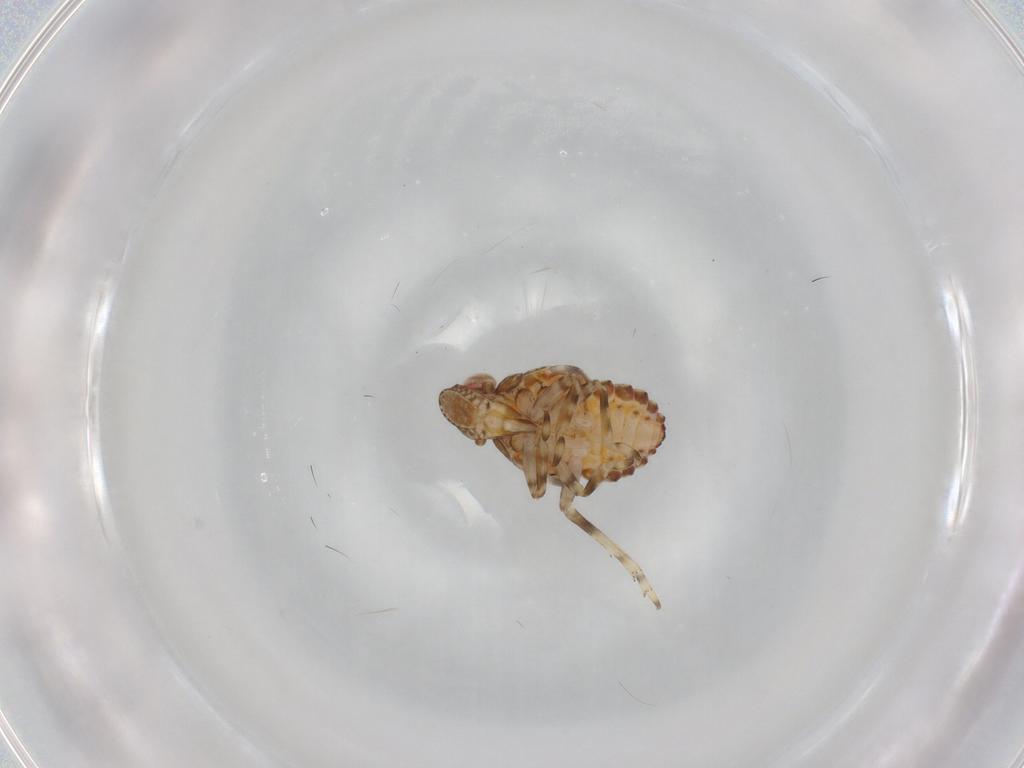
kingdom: Animalia
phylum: Arthropoda
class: Insecta
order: Hemiptera
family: Tropiduchidae
